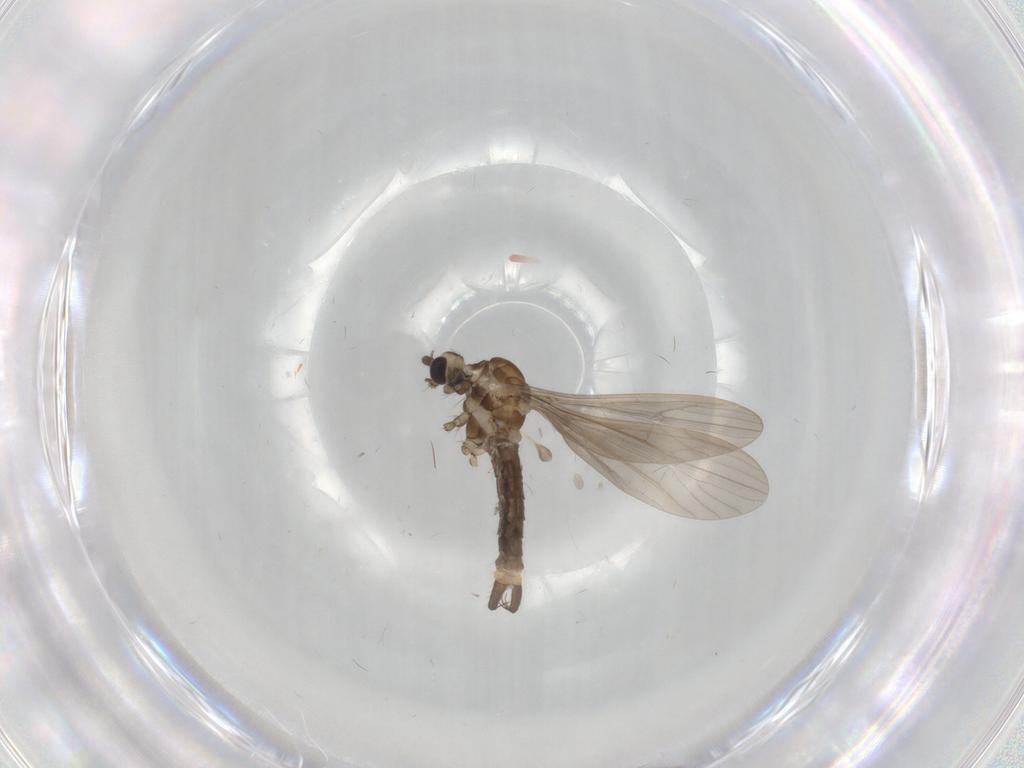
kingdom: Animalia
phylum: Arthropoda
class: Insecta
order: Diptera
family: Limoniidae
